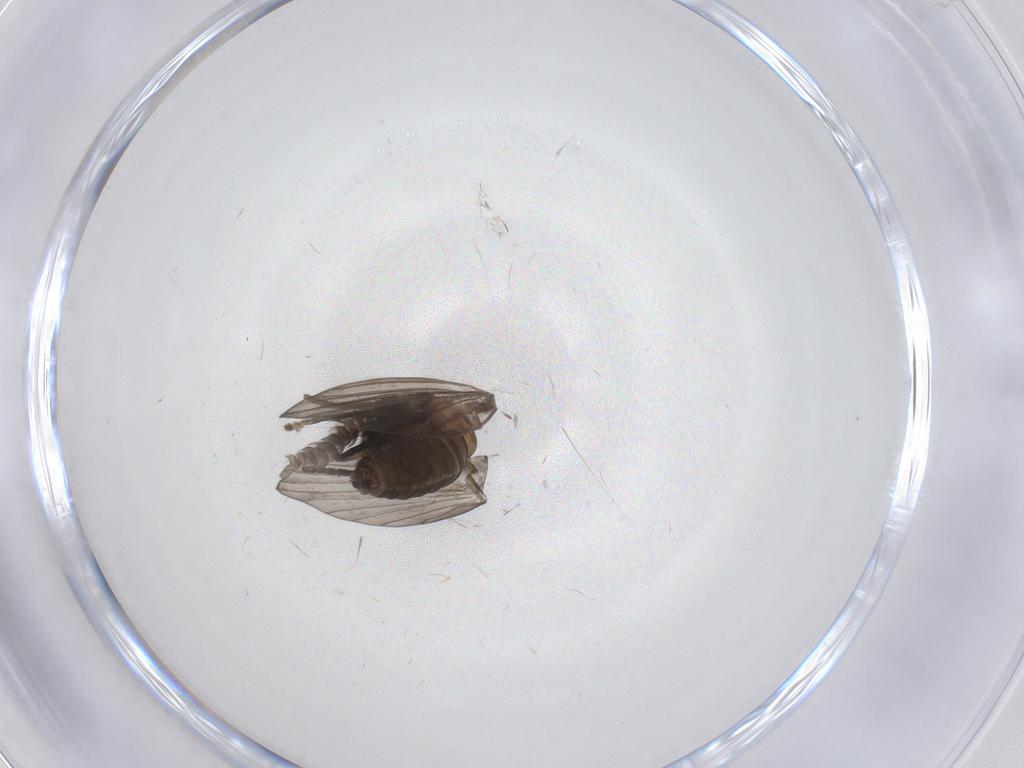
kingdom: Animalia
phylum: Arthropoda
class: Insecta
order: Diptera
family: Psychodidae
